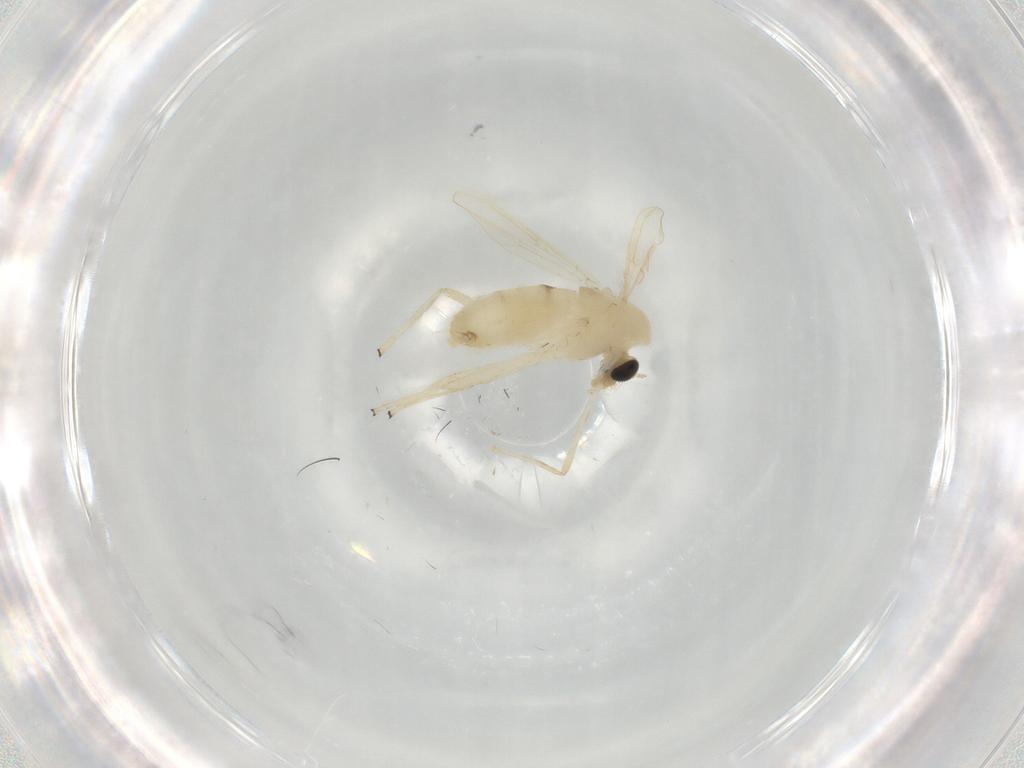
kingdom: Animalia
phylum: Arthropoda
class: Insecta
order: Diptera
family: Chironomidae
